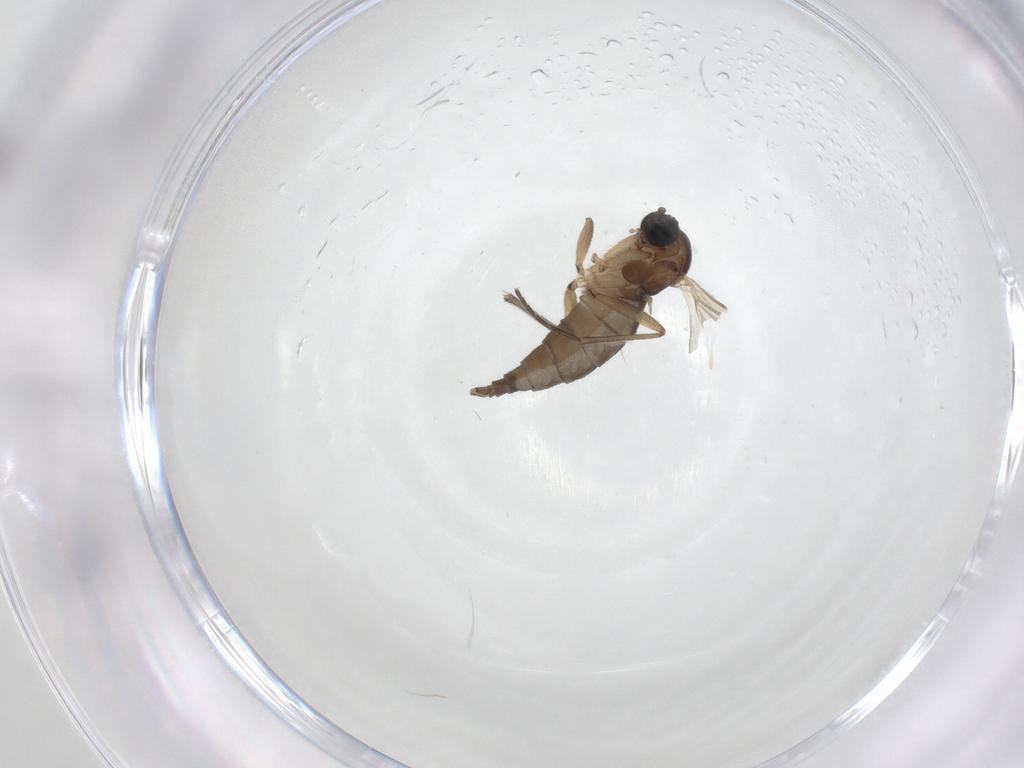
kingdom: Animalia
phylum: Arthropoda
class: Insecta
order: Diptera
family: Sciaridae
